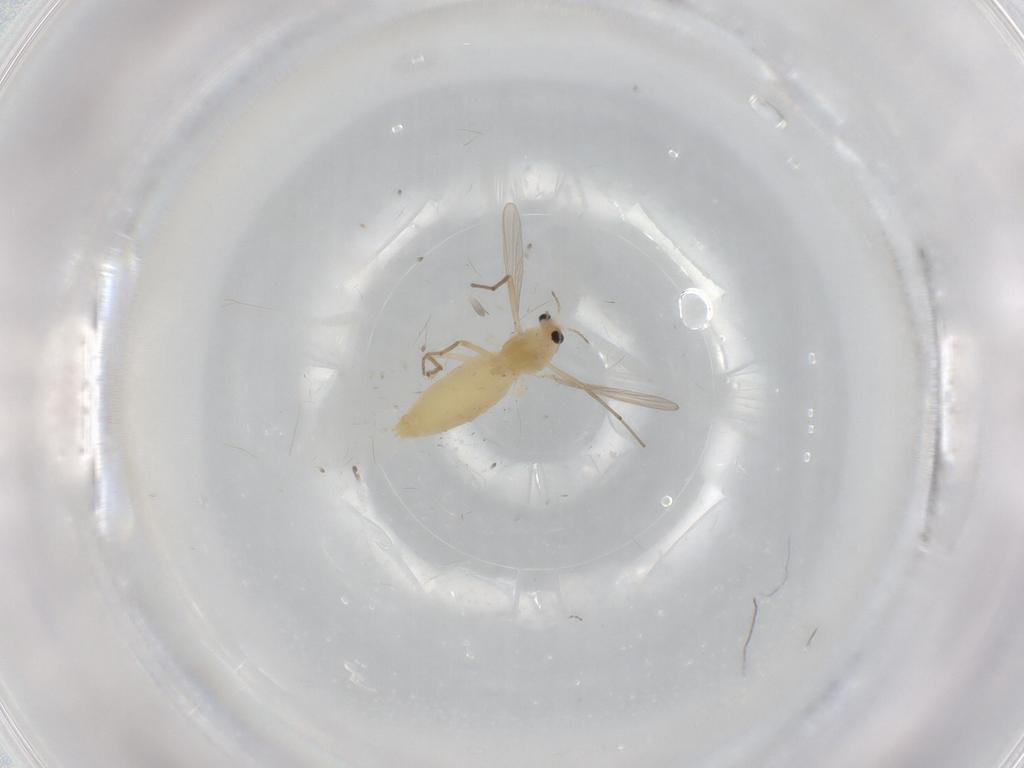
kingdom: Animalia
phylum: Arthropoda
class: Insecta
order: Diptera
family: Chironomidae
